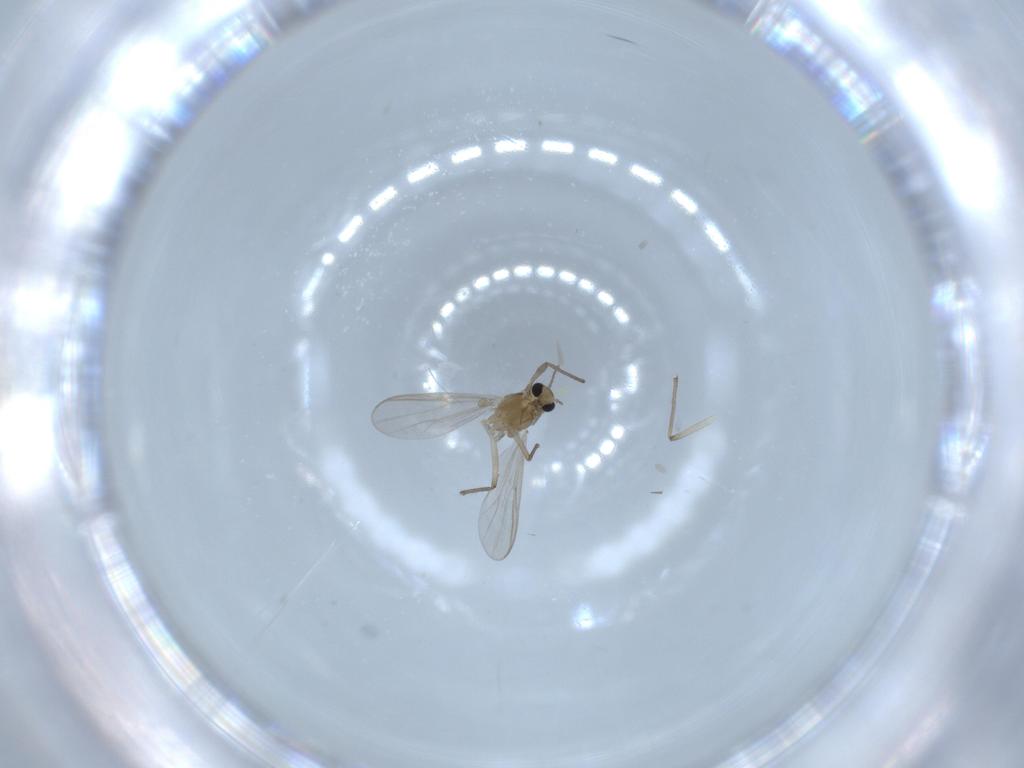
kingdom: Animalia
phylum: Arthropoda
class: Insecta
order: Diptera
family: Chironomidae
